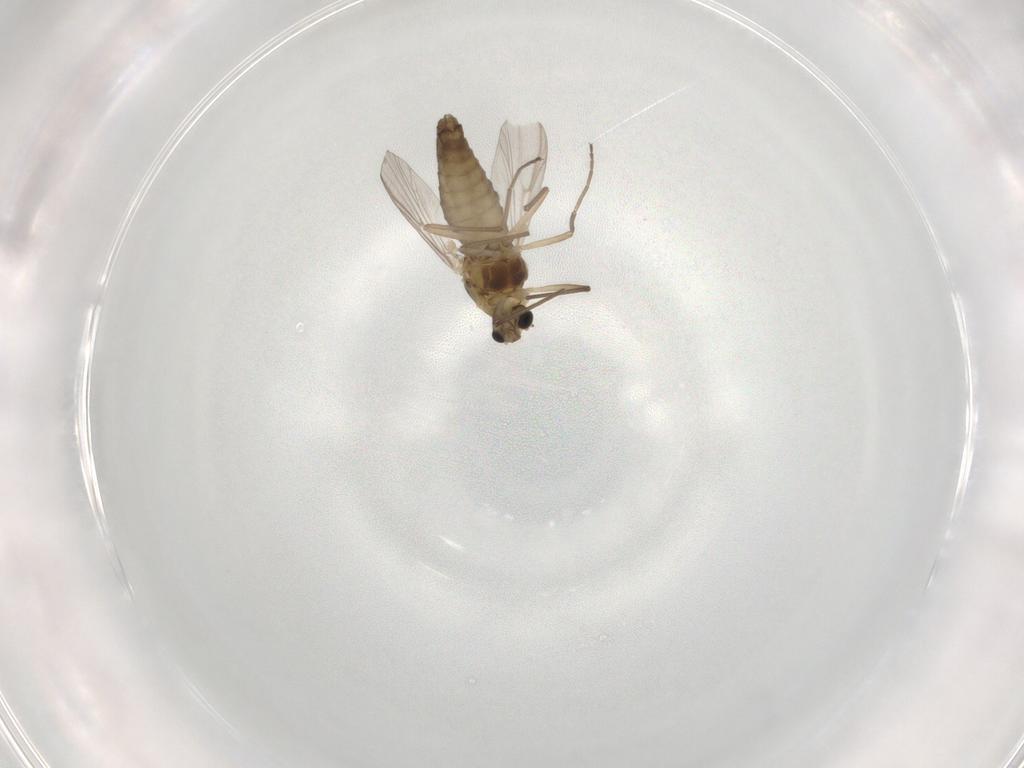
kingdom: Animalia
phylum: Arthropoda
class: Insecta
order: Diptera
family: Chironomidae
